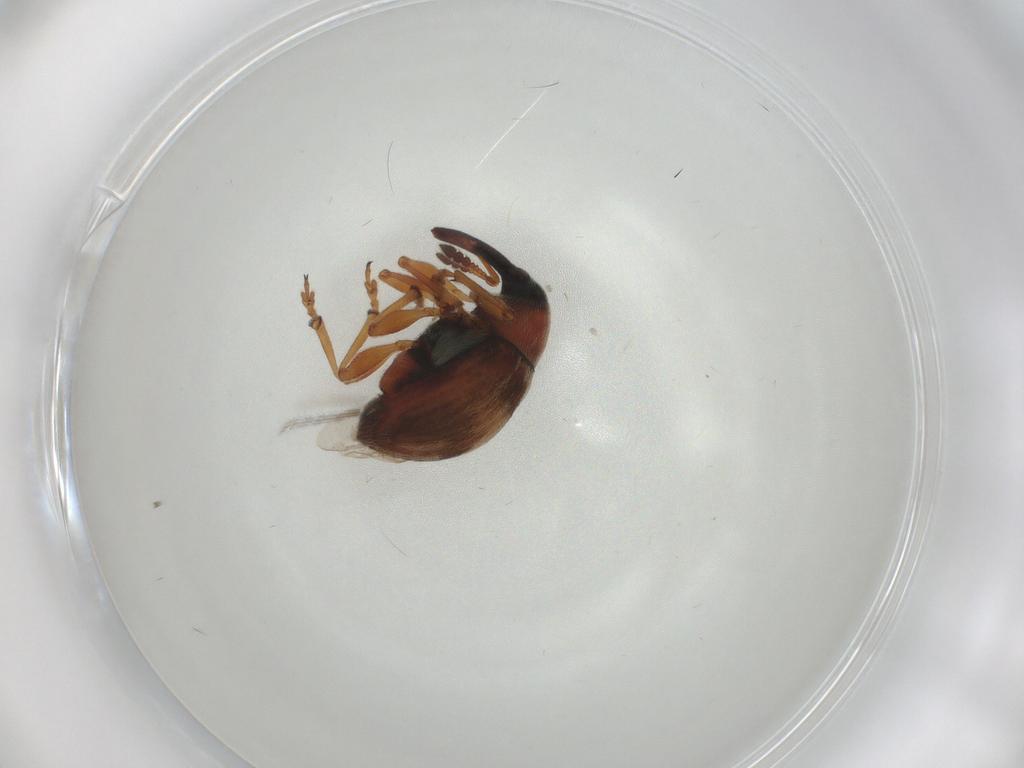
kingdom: Animalia
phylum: Arthropoda
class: Insecta
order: Coleoptera
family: Brentidae
